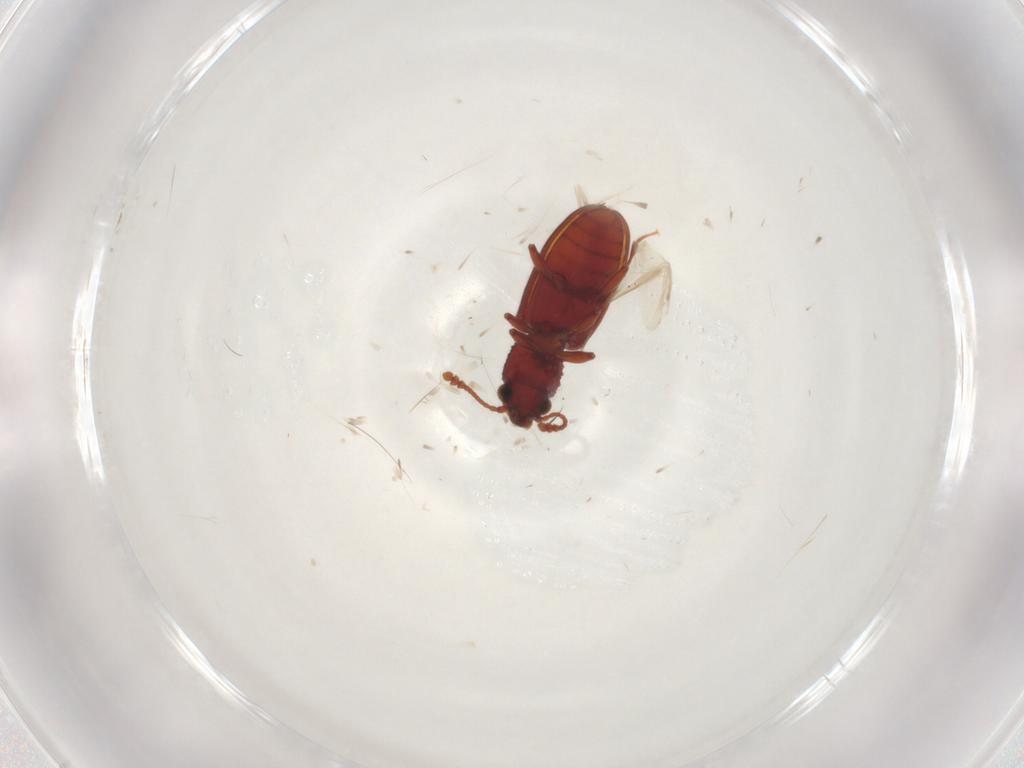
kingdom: Animalia
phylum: Arthropoda
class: Insecta
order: Coleoptera
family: Silvanidae
